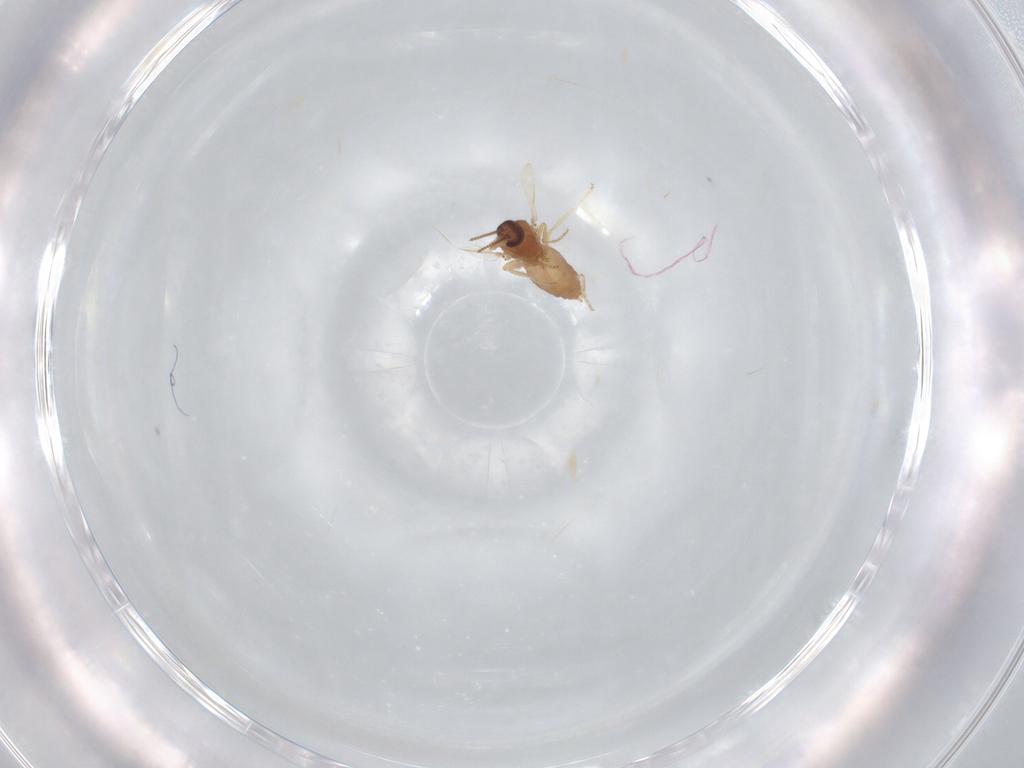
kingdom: Animalia
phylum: Arthropoda
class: Insecta
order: Diptera
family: Ceratopogonidae
